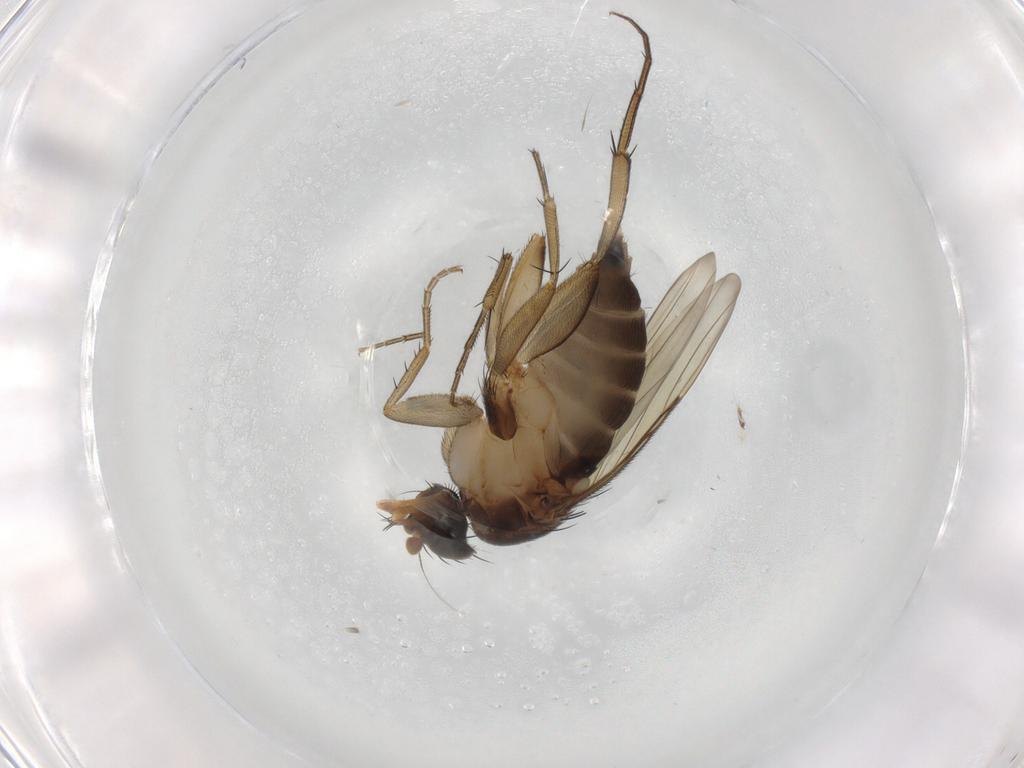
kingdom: Animalia
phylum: Arthropoda
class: Insecta
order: Diptera
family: Phoridae
